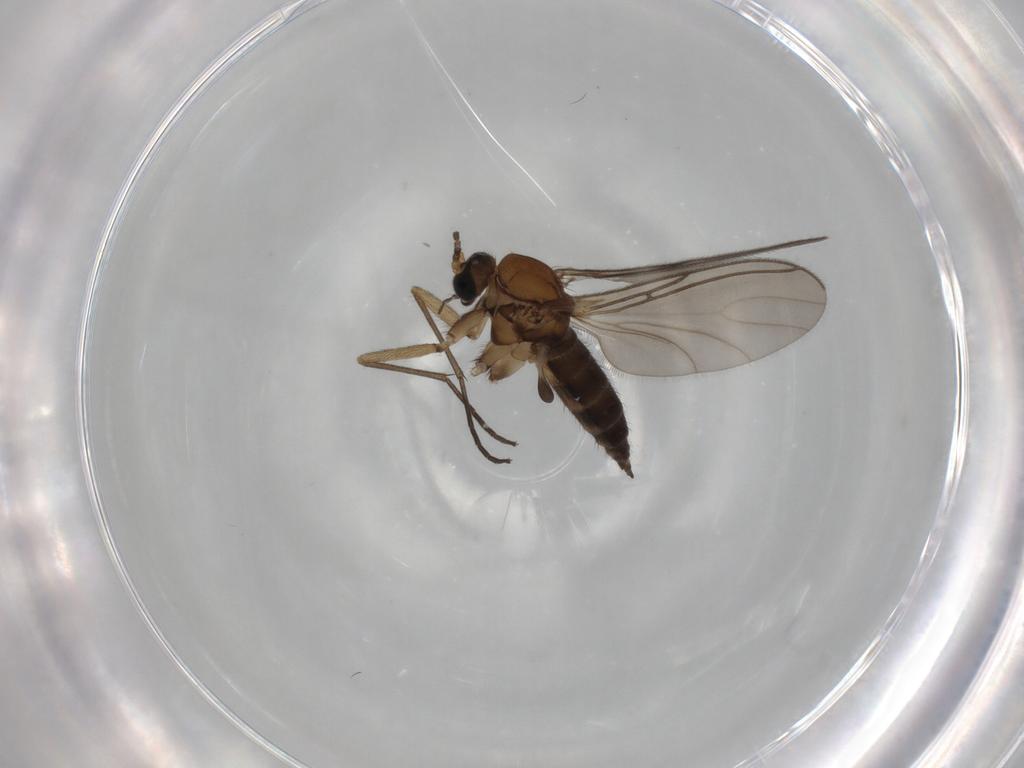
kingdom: Animalia
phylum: Arthropoda
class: Insecta
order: Diptera
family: Sciaridae
